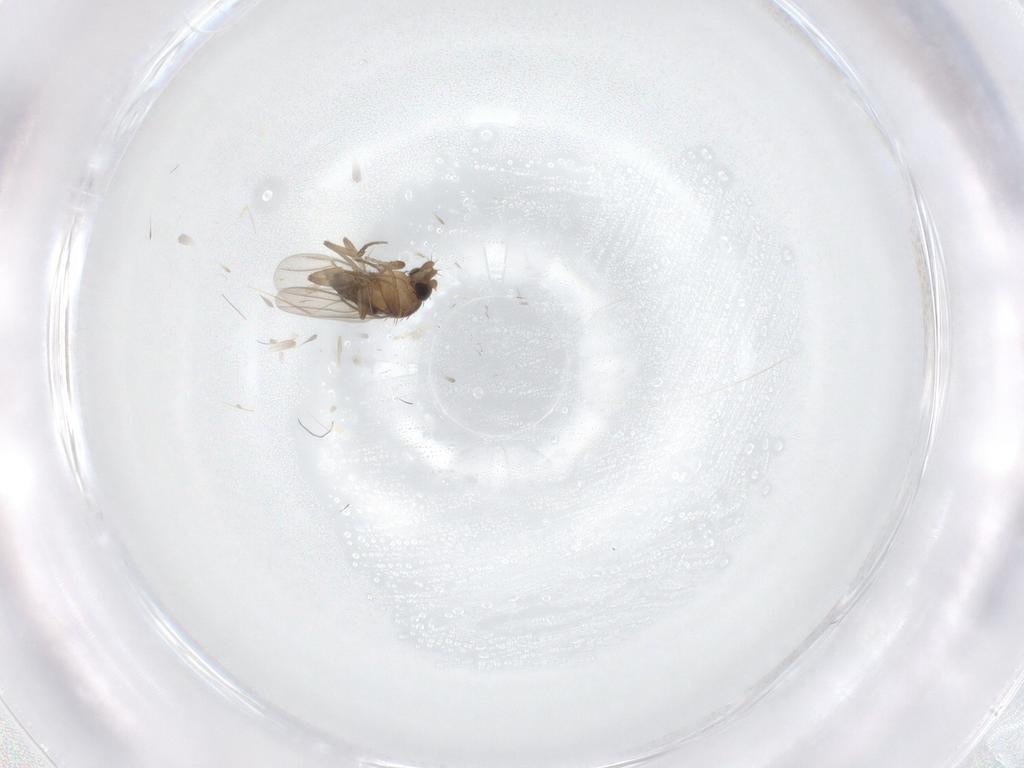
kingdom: Animalia
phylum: Arthropoda
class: Insecta
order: Diptera
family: Phoridae
